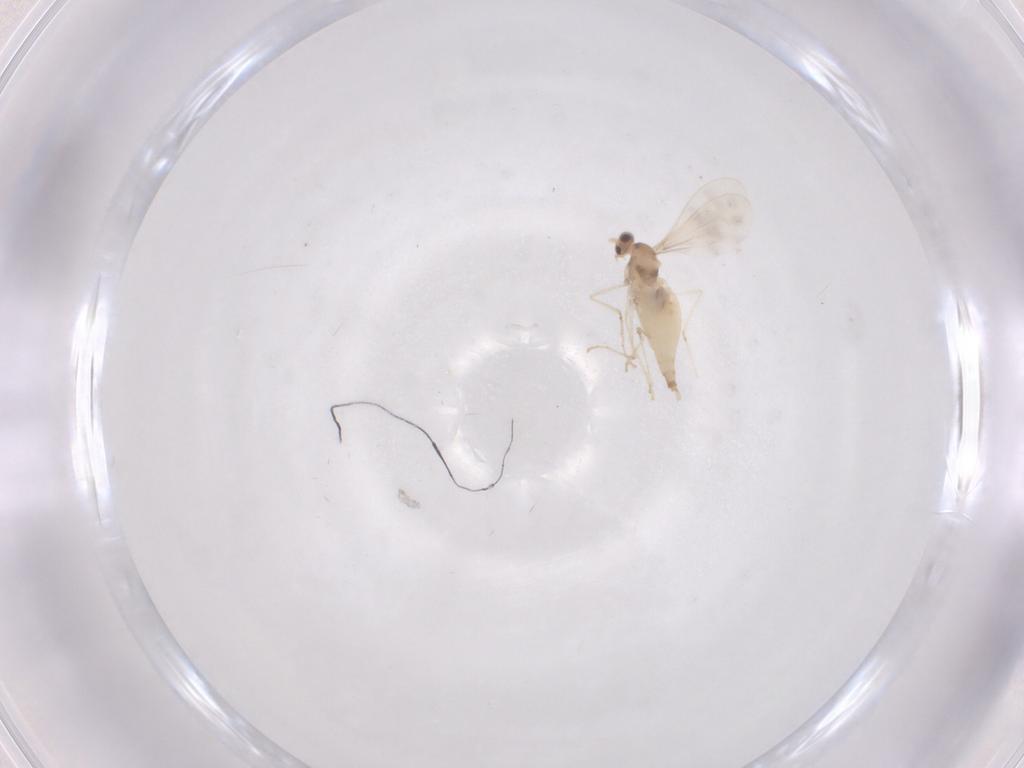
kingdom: Animalia
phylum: Arthropoda
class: Insecta
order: Diptera
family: Cecidomyiidae
